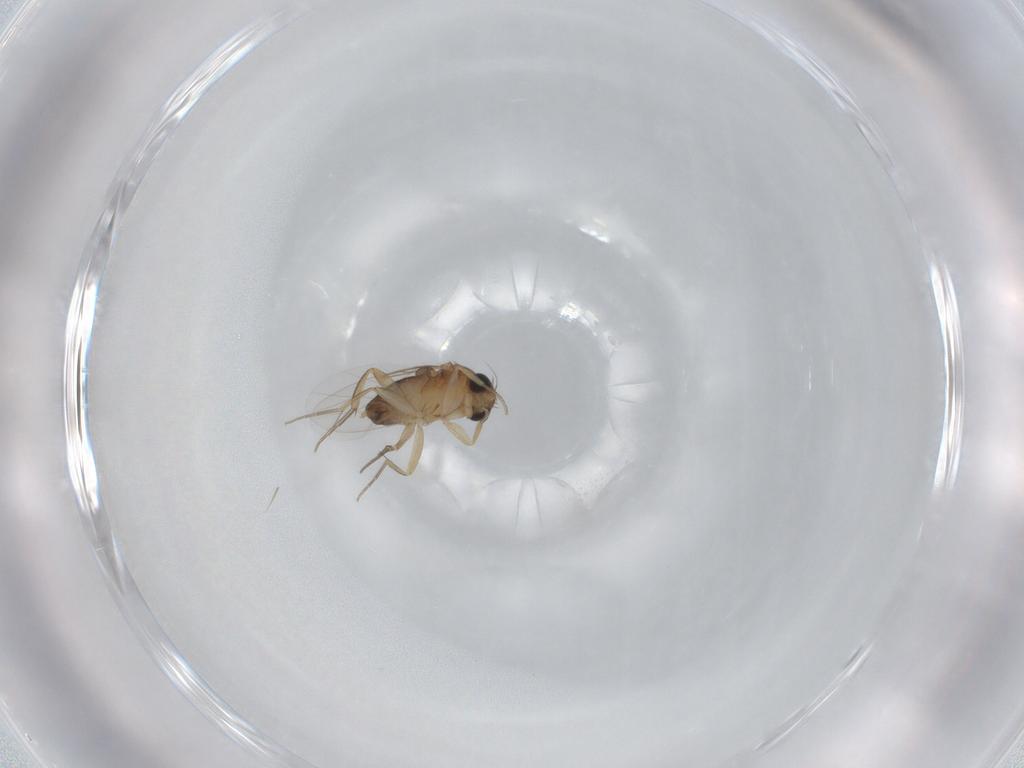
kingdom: Animalia
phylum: Arthropoda
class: Insecta
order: Diptera
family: Phoridae
